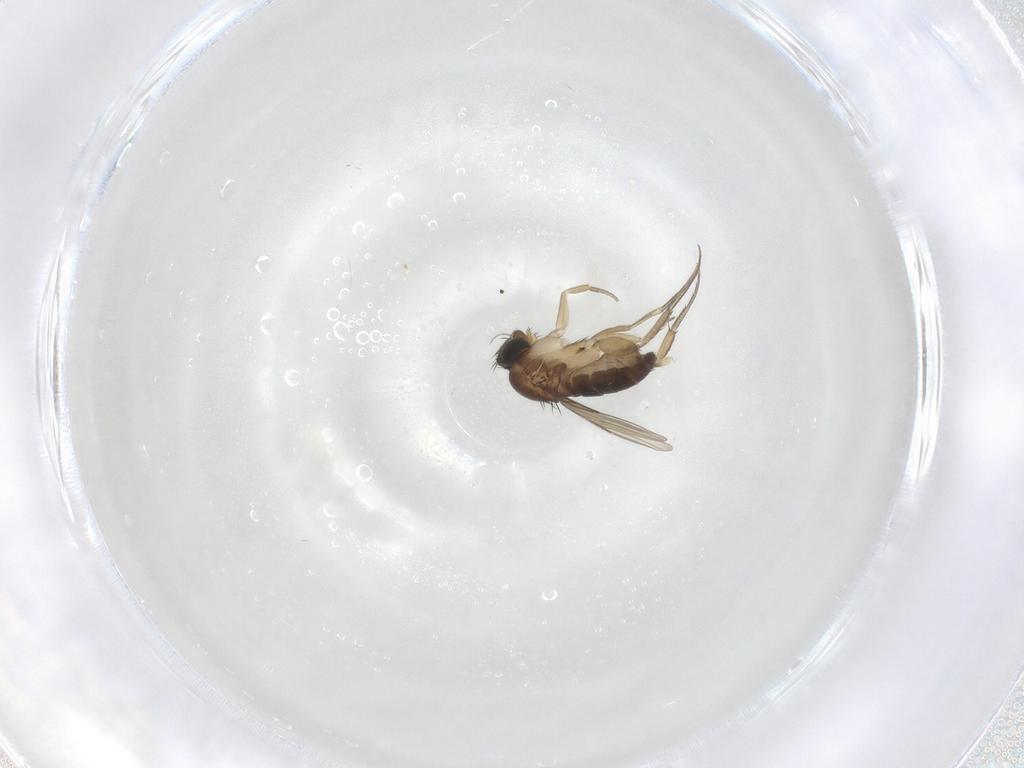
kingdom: Animalia
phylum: Arthropoda
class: Insecta
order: Diptera
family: Phoridae
